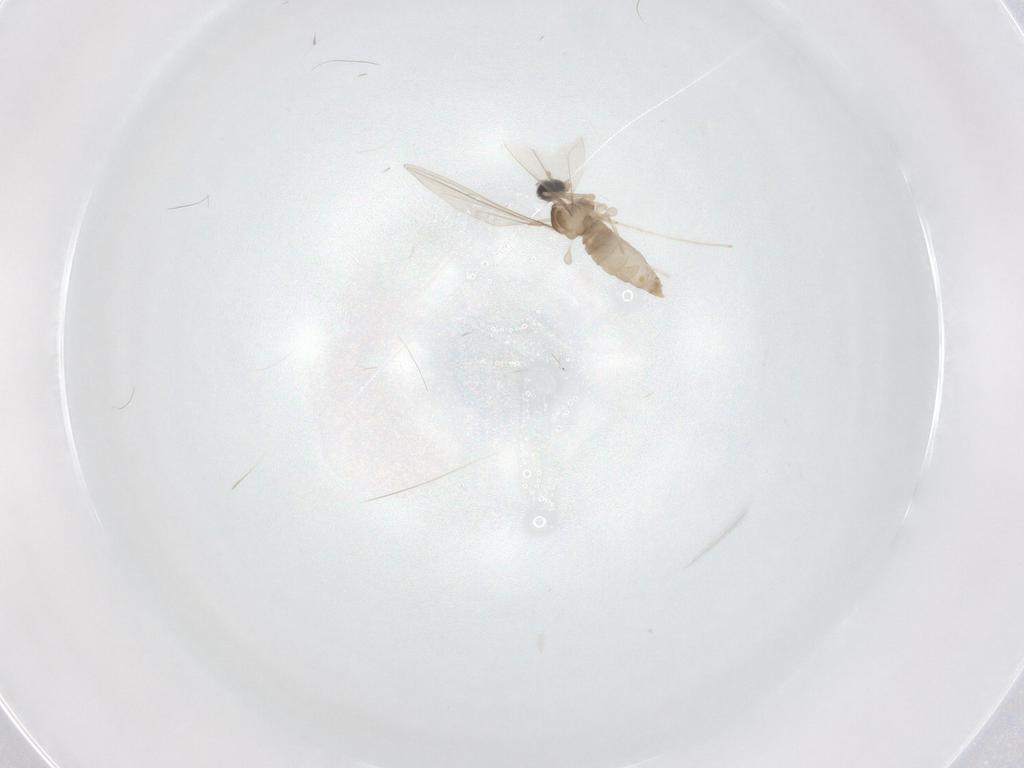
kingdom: Animalia
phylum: Arthropoda
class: Insecta
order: Diptera
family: Cecidomyiidae
